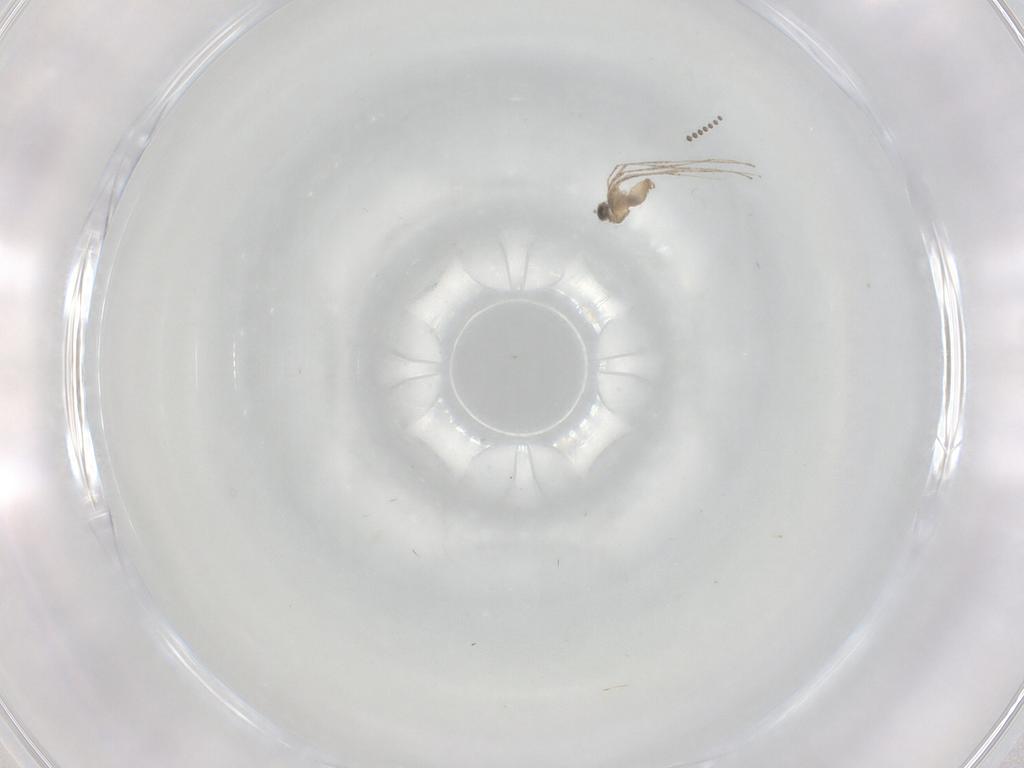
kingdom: Animalia
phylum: Arthropoda
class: Insecta
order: Diptera
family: Cecidomyiidae
